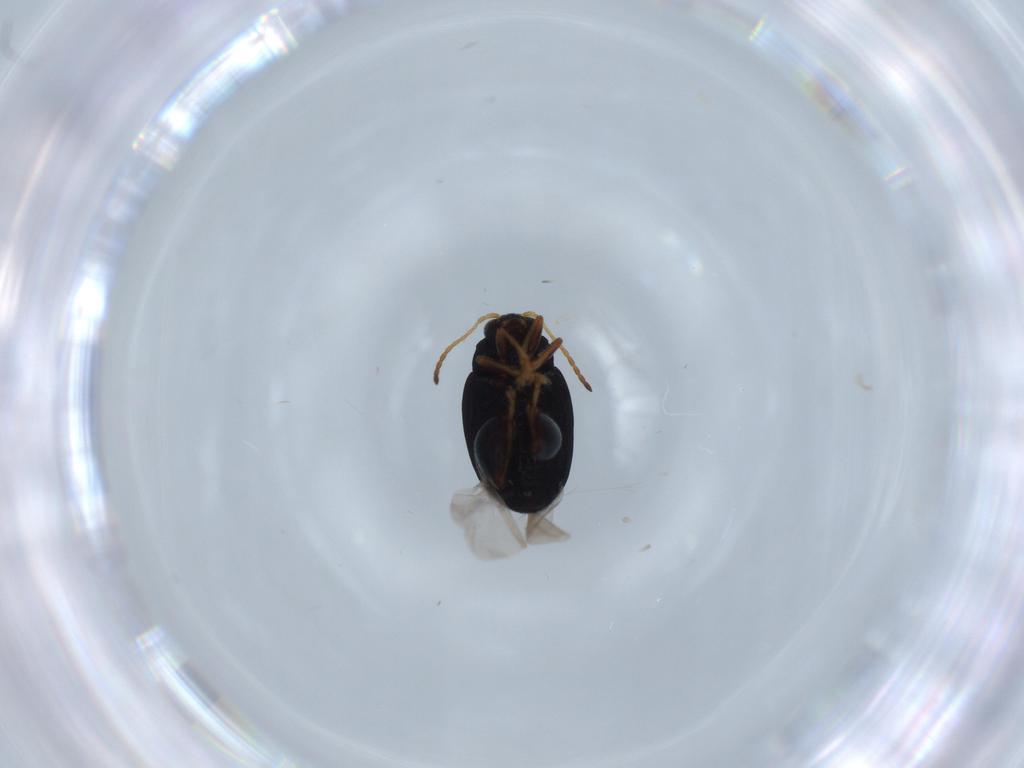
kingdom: Animalia
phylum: Arthropoda
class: Insecta
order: Coleoptera
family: Chrysomelidae
